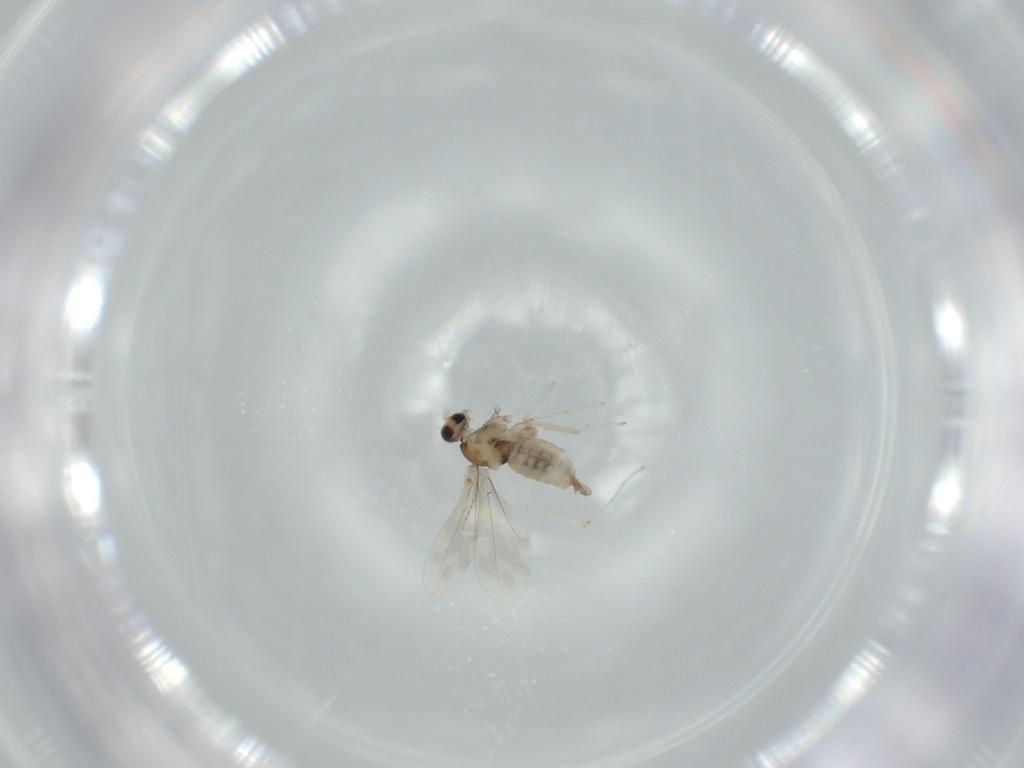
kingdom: Animalia
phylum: Arthropoda
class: Insecta
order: Diptera
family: Cecidomyiidae
